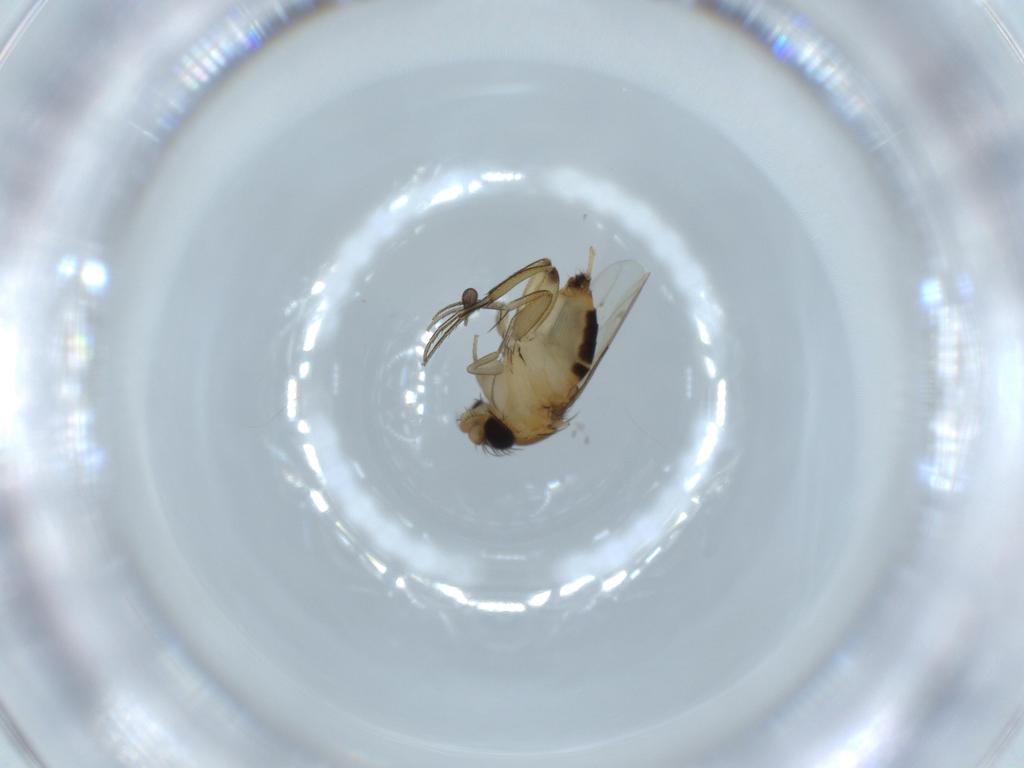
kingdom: Animalia
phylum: Arthropoda
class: Insecta
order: Diptera
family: Phoridae
